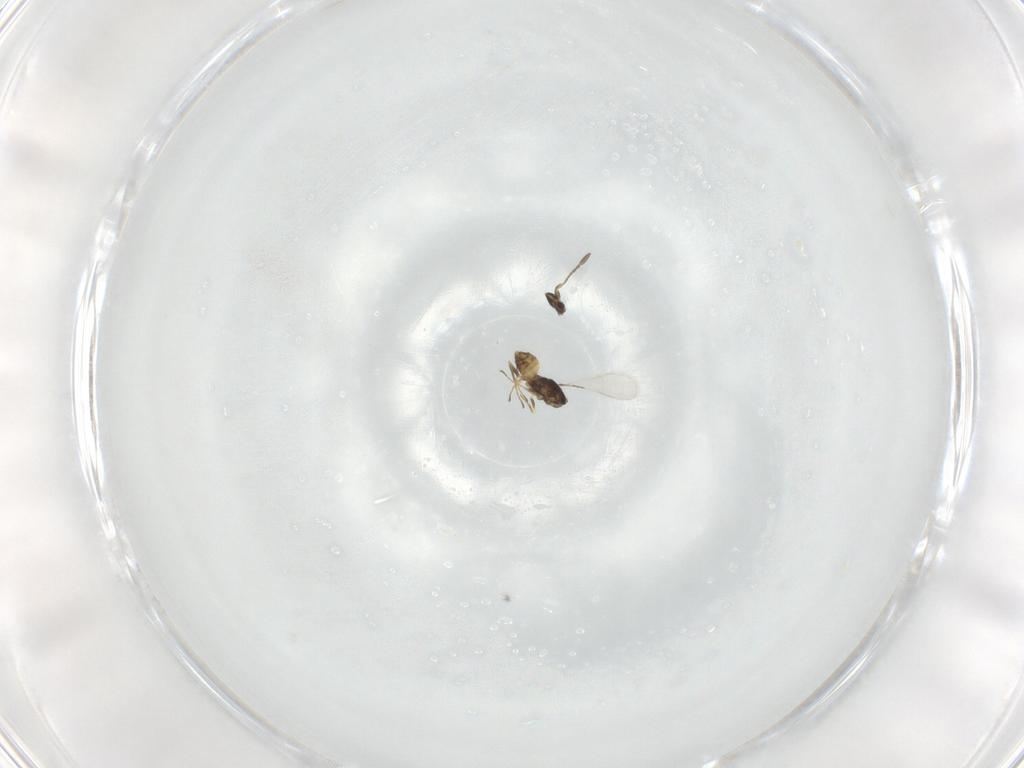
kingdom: Animalia
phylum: Arthropoda
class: Insecta
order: Hymenoptera
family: Mymaridae
